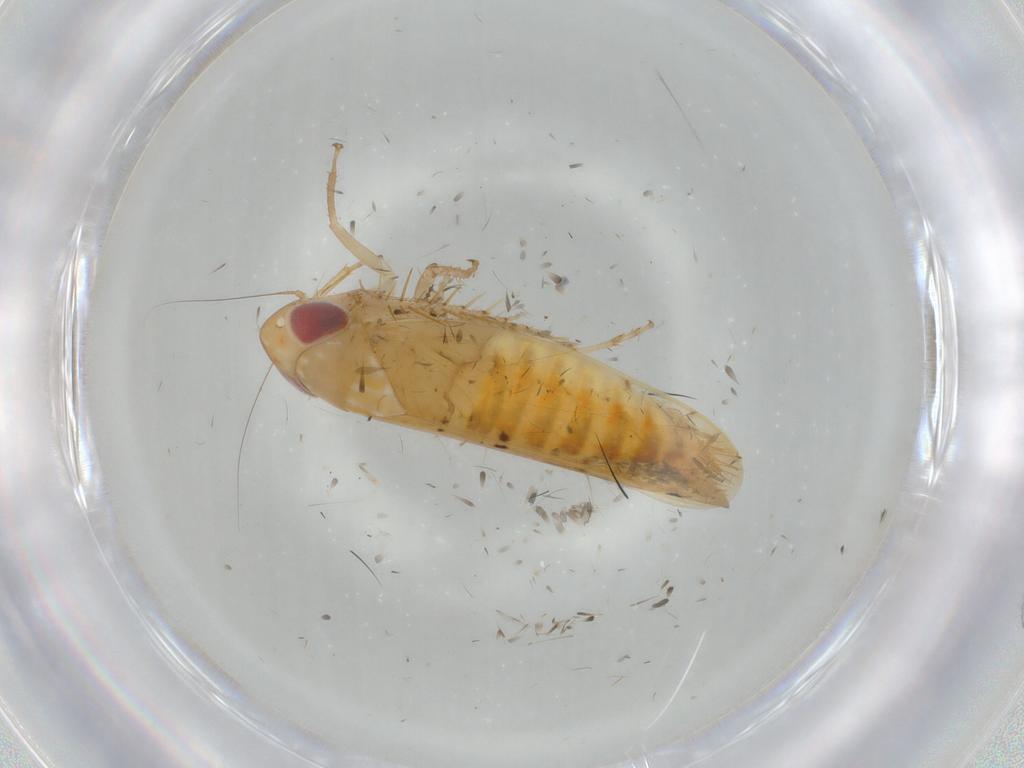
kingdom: Animalia
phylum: Arthropoda
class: Insecta
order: Hemiptera
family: Cicadellidae
